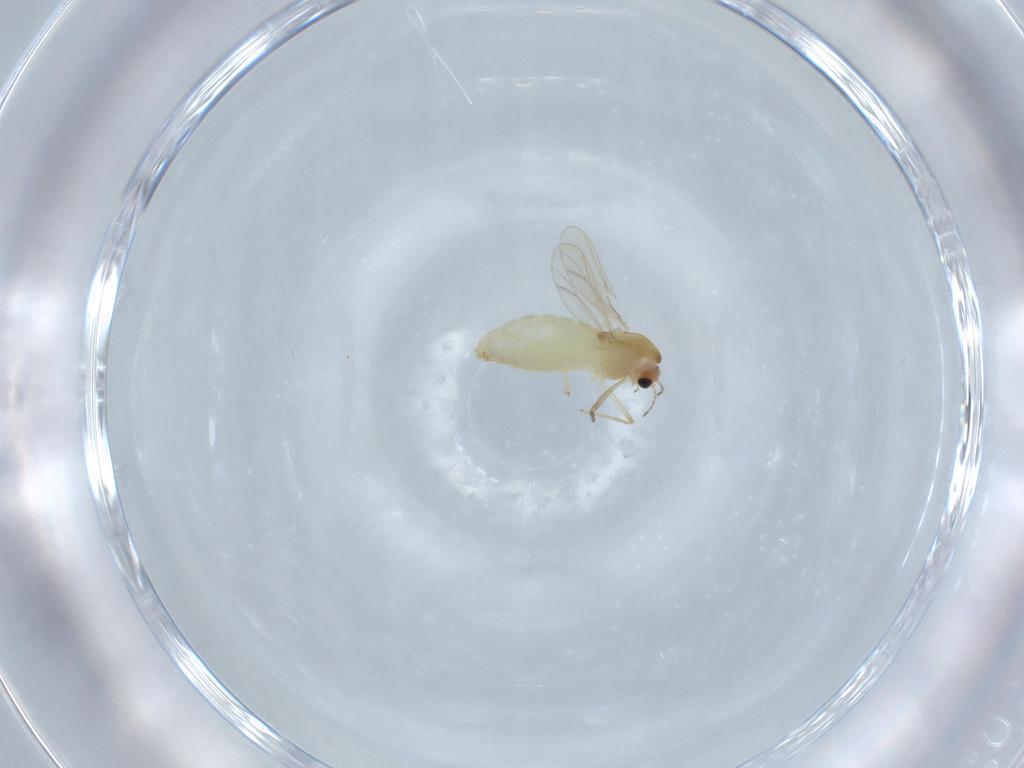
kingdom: Animalia
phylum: Arthropoda
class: Insecta
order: Diptera
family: Chironomidae
